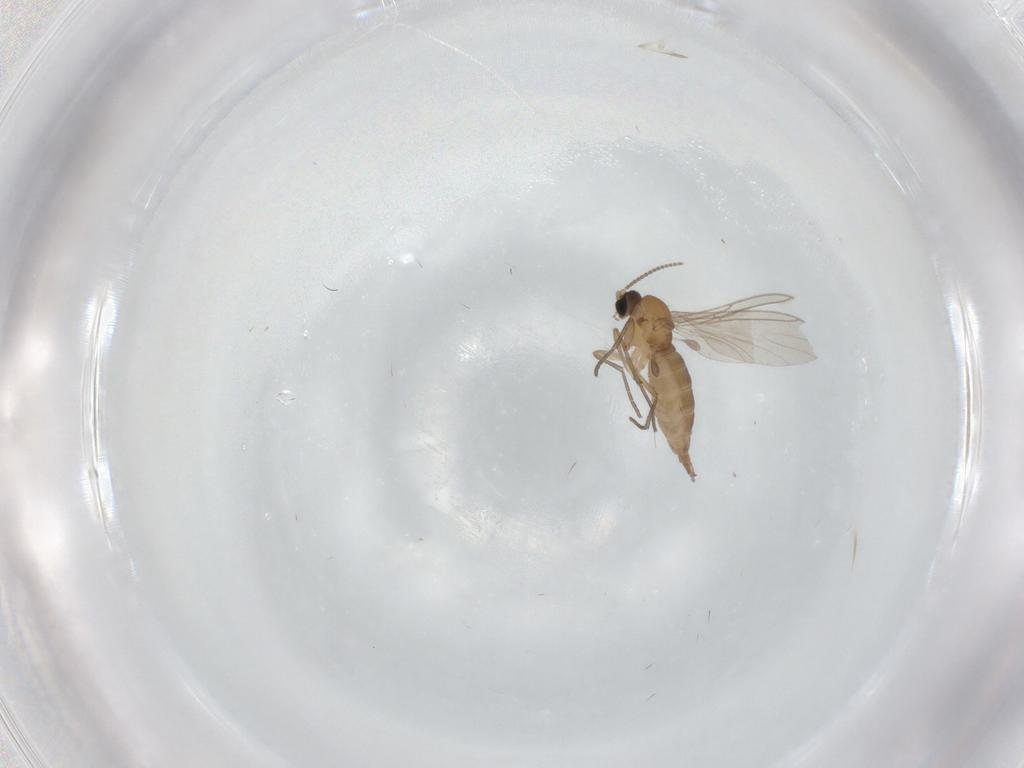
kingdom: Animalia
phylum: Arthropoda
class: Insecta
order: Diptera
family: Sciaridae
